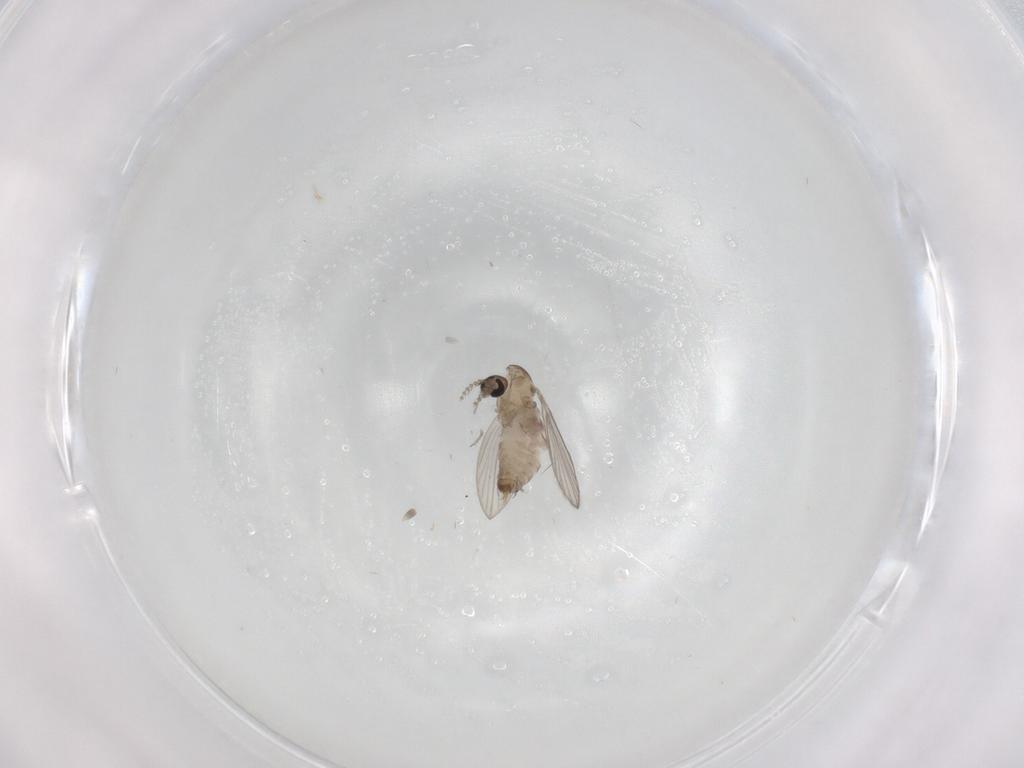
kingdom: Animalia
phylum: Arthropoda
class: Insecta
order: Diptera
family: Psychodidae
